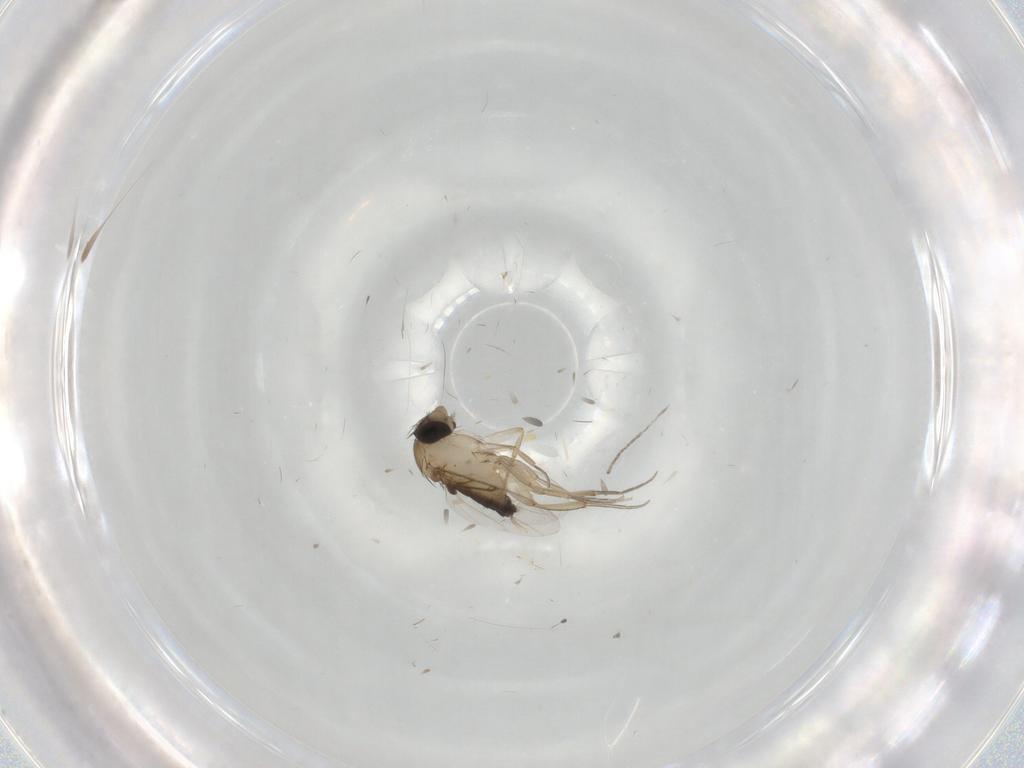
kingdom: Animalia
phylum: Arthropoda
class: Insecta
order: Diptera
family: Phoridae
